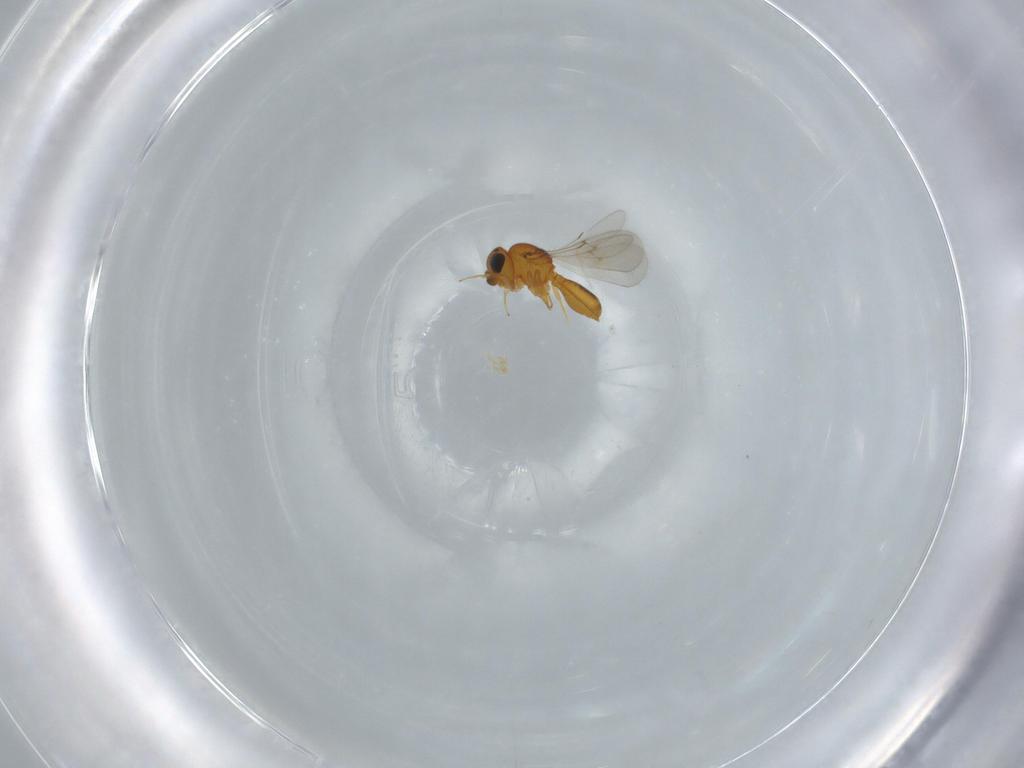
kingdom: Animalia
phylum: Arthropoda
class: Insecta
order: Hymenoptera
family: Scelionidae
